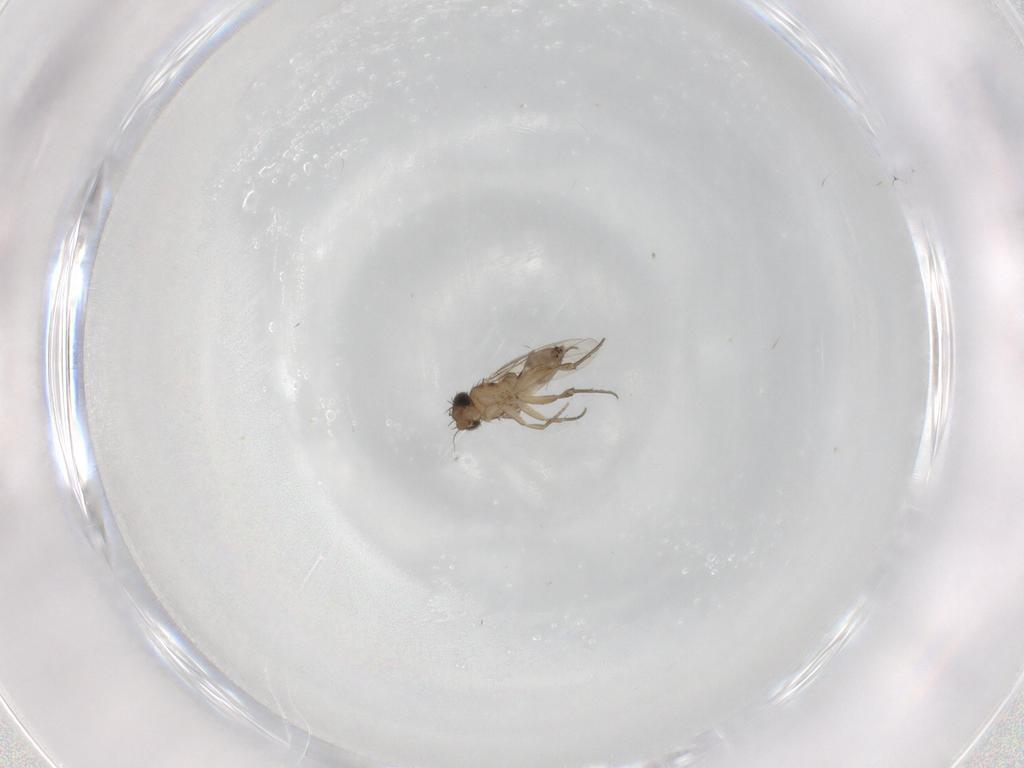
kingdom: Animalia
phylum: Arthropoda
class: Insecta
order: Diptera
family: Phoridae
